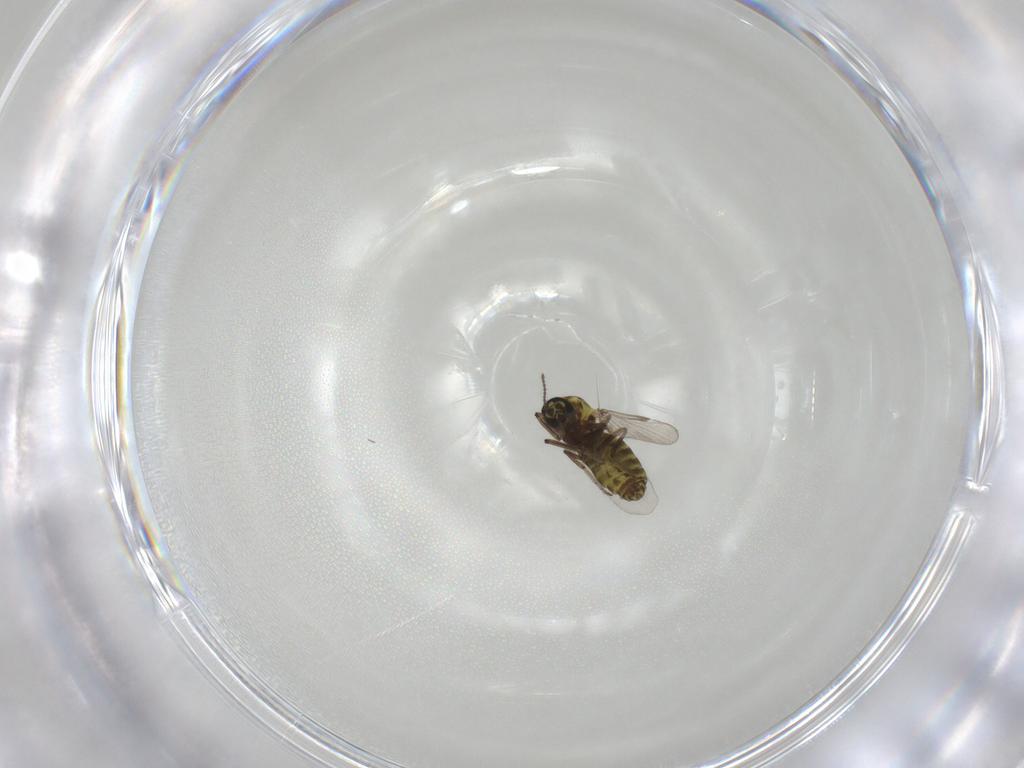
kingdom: Animalia
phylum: Arthropoda
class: Insecta
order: Diptera
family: Ceratopogonidae
